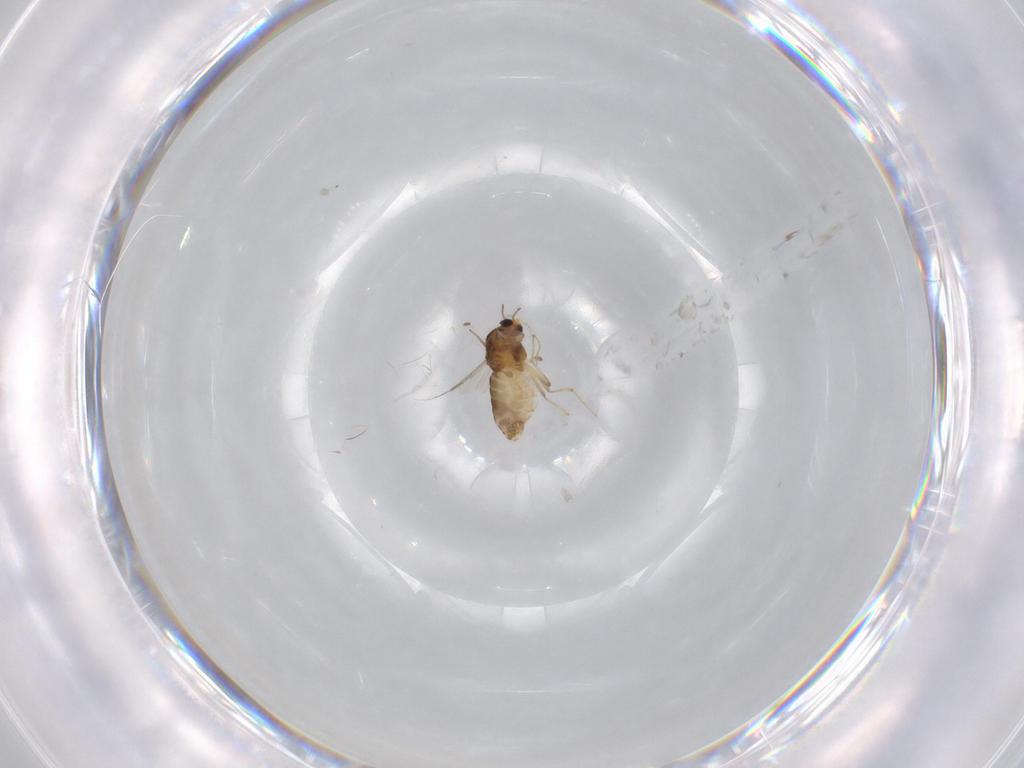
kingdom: Animalia
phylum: Arthropoda
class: Insecta
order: Diptera
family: Chironomidae
